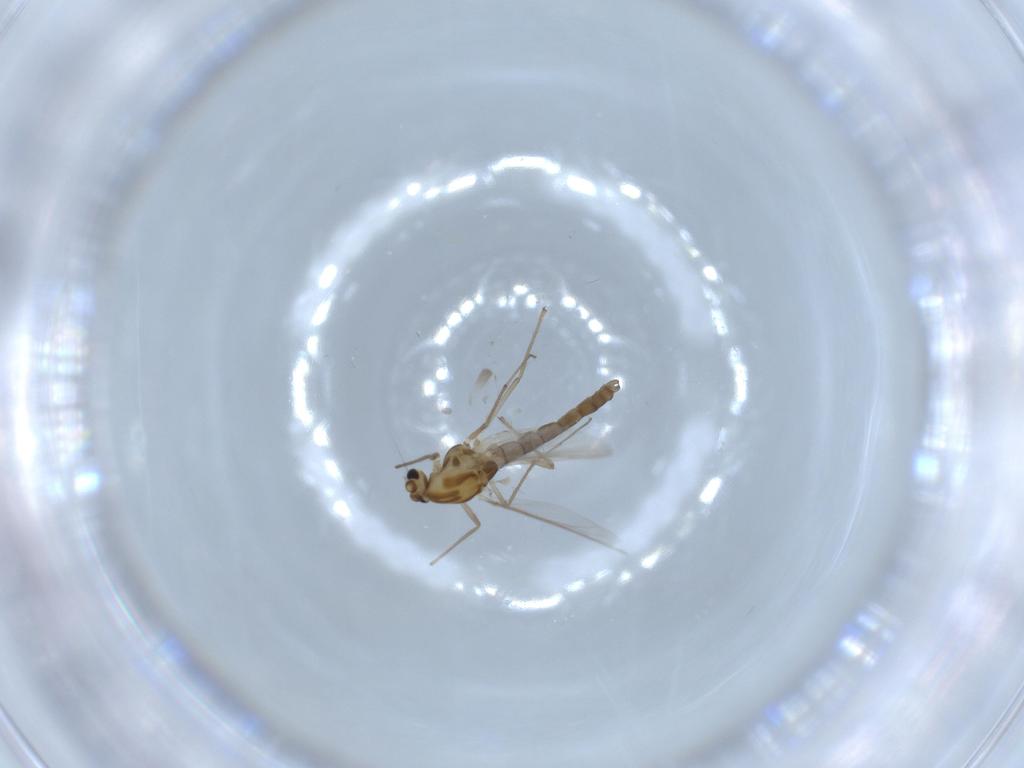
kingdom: Animalia
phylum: Arthropoda
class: Insecta
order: Diptera
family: Chironomidae
